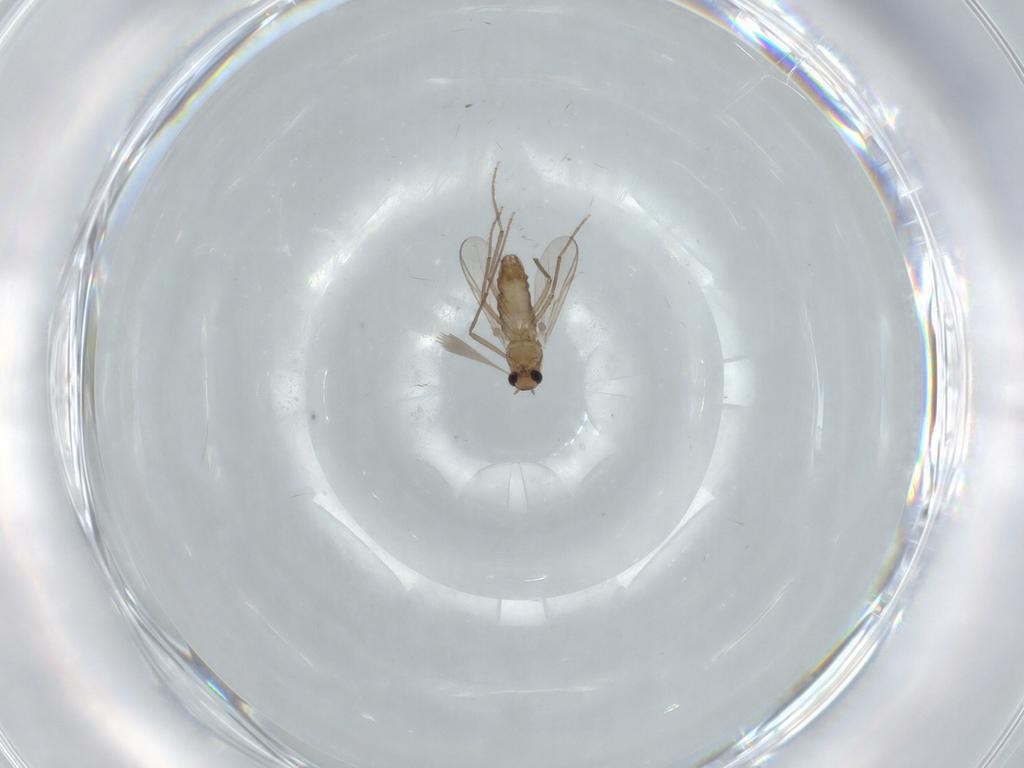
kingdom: Animalia
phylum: Arthropoda
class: Insecta
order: Diptera
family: Chironomidae
